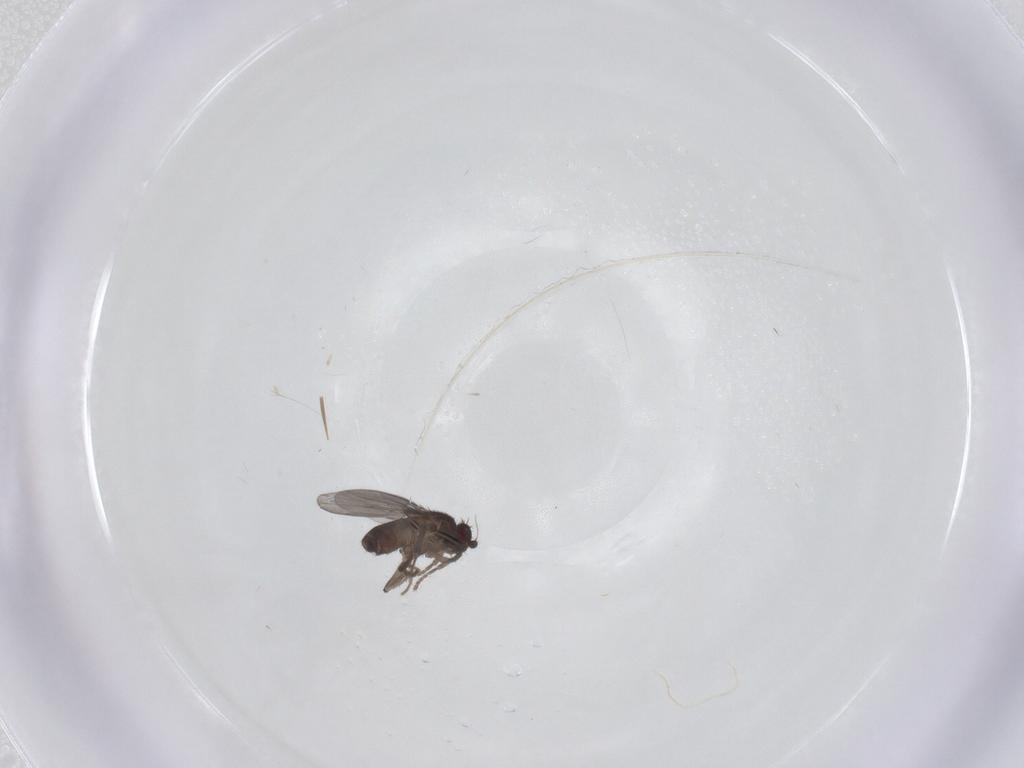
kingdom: Animalia
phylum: Arthropoda
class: Insecta
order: Diptera
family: Sphaeroceridae
